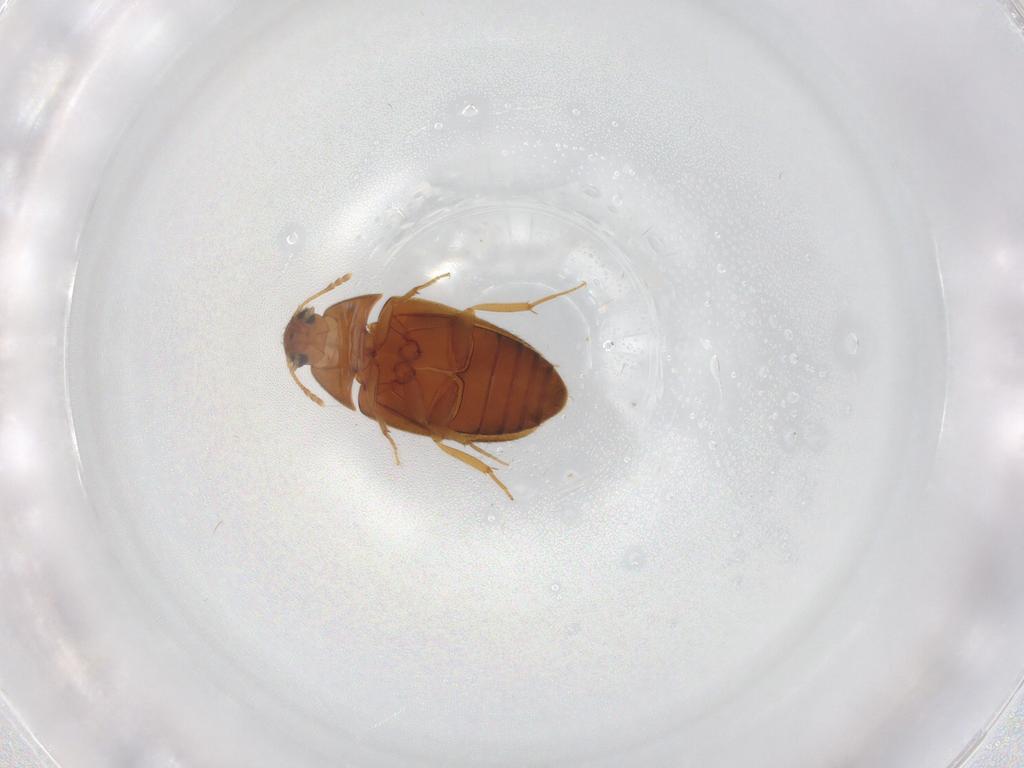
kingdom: Animalia
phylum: Arthropoda
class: Insecta
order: Coleoptera
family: Mycetophagidae
